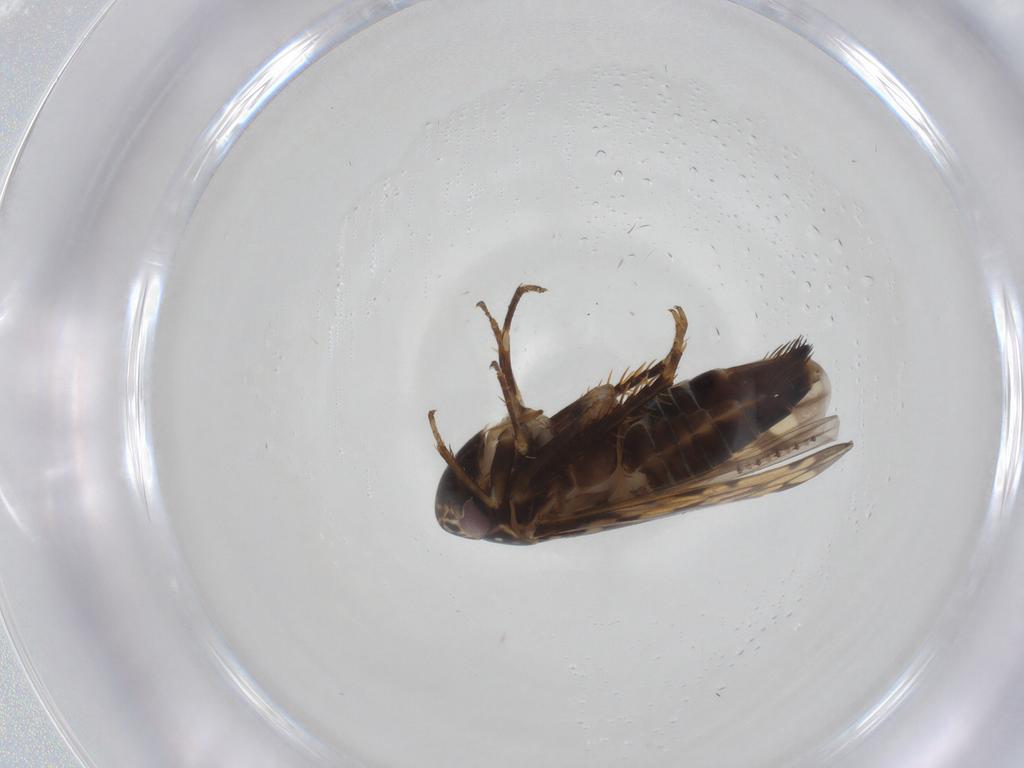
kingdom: Animalia
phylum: Arthropoda
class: Insecta
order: Hemiptera
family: Cicadellidae
